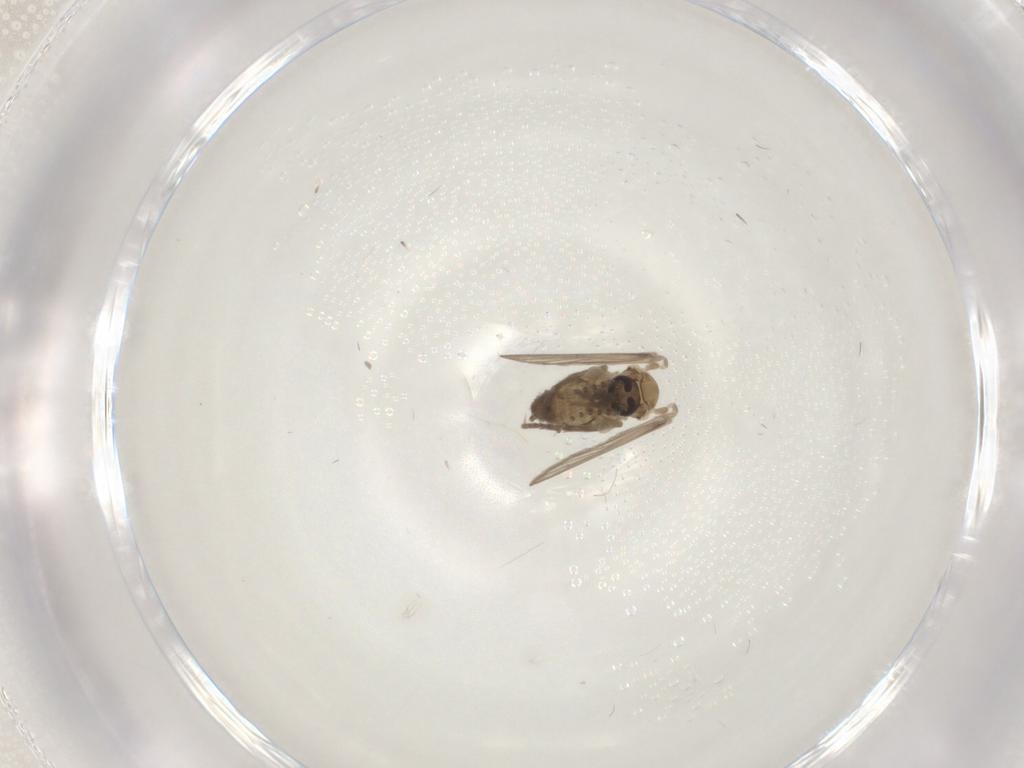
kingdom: Animalia
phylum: Arthropoda
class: Insecta
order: Diptera
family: Psychodidae
